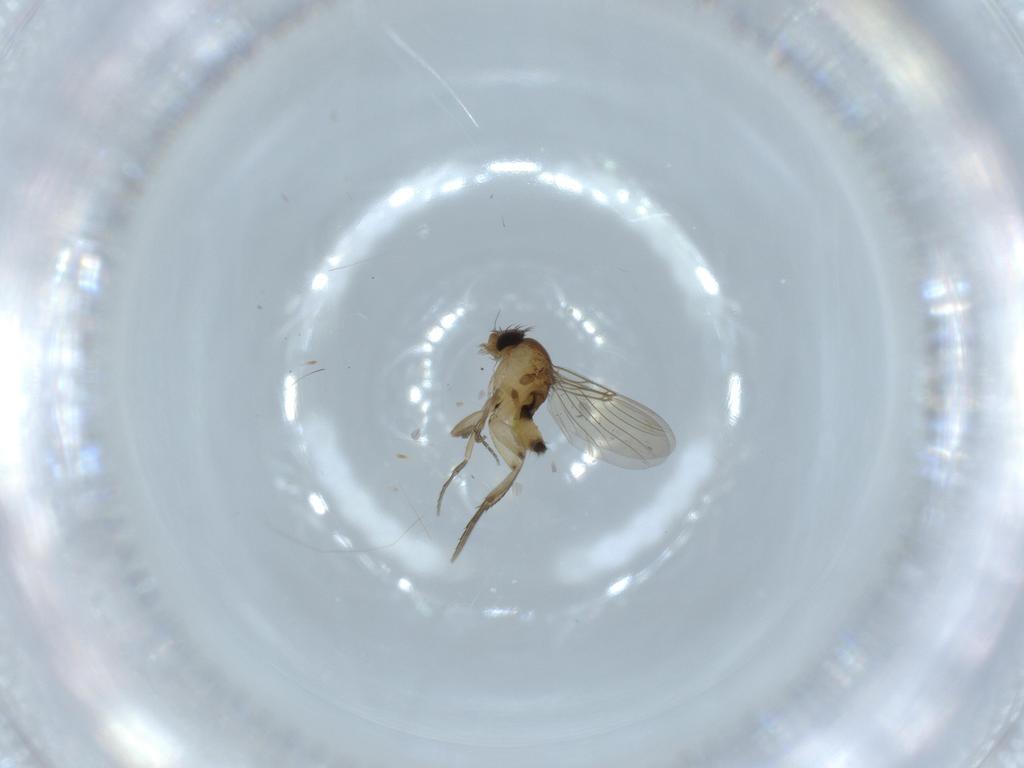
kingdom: Animalia
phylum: Arthropoda
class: Insecta
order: Diptera
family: Phoridae
